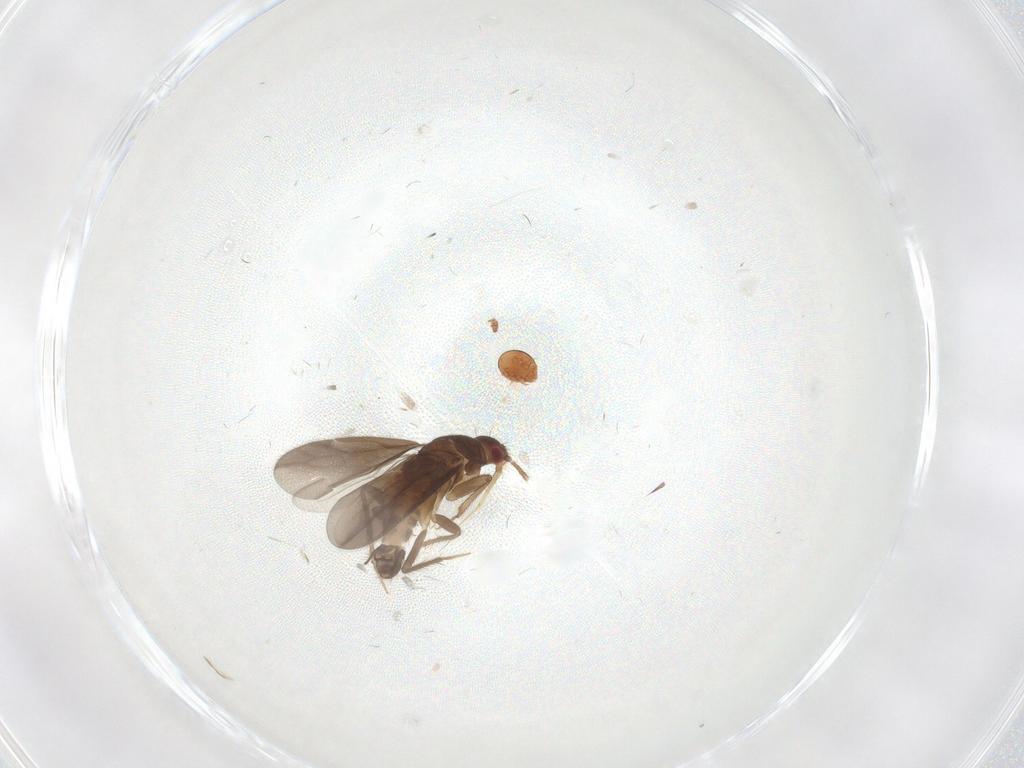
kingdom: Animalia
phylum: Arthropoda
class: Insecta
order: Hemiptera
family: Ceratocombidae
